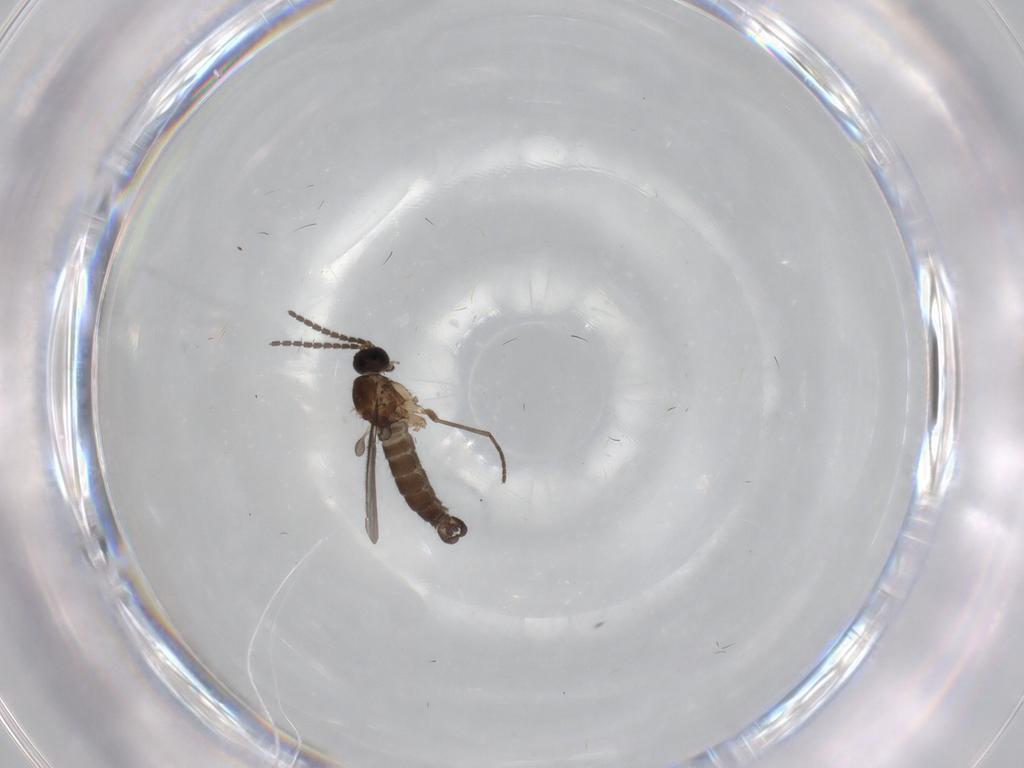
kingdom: Animalia
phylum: Arthropoda
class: Insecta
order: Diptera
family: Sciaridae
